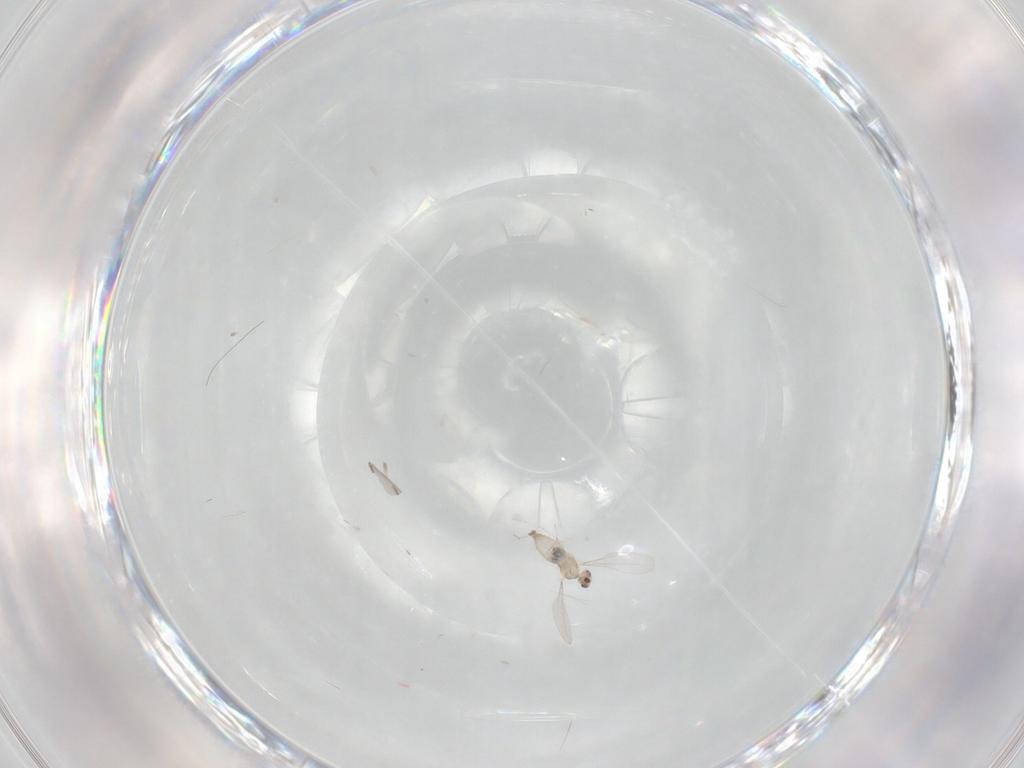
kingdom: Animalia
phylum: Arthropoda
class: Insecta
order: Diptera
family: Cecidomyiidae
